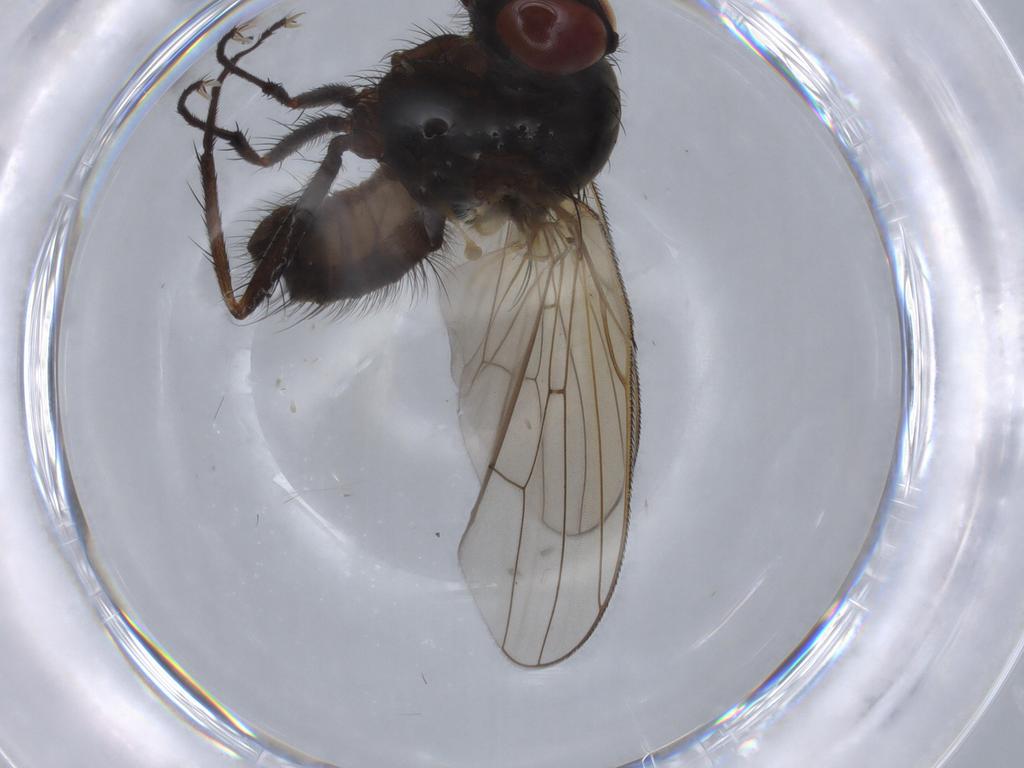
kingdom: Animalia
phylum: Arthropoda
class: Insecta
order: Diptera
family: Anthomyiidae
